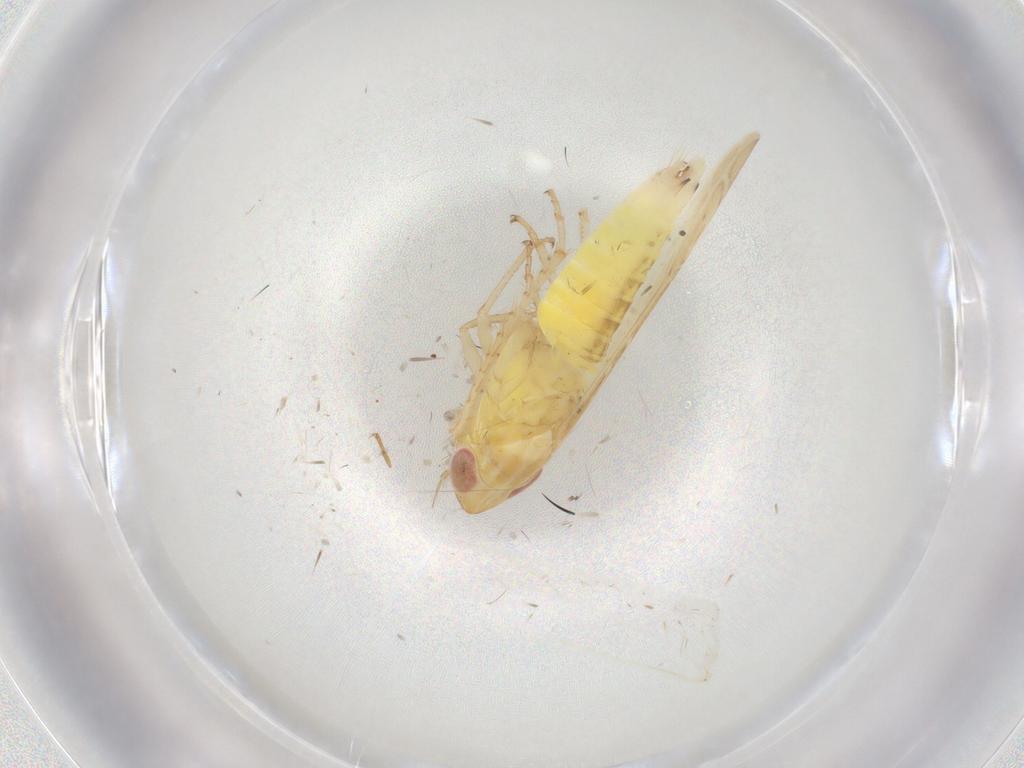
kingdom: Animalia
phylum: Arthropoda
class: Insecta
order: Hemiptera
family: Cicadellidae
